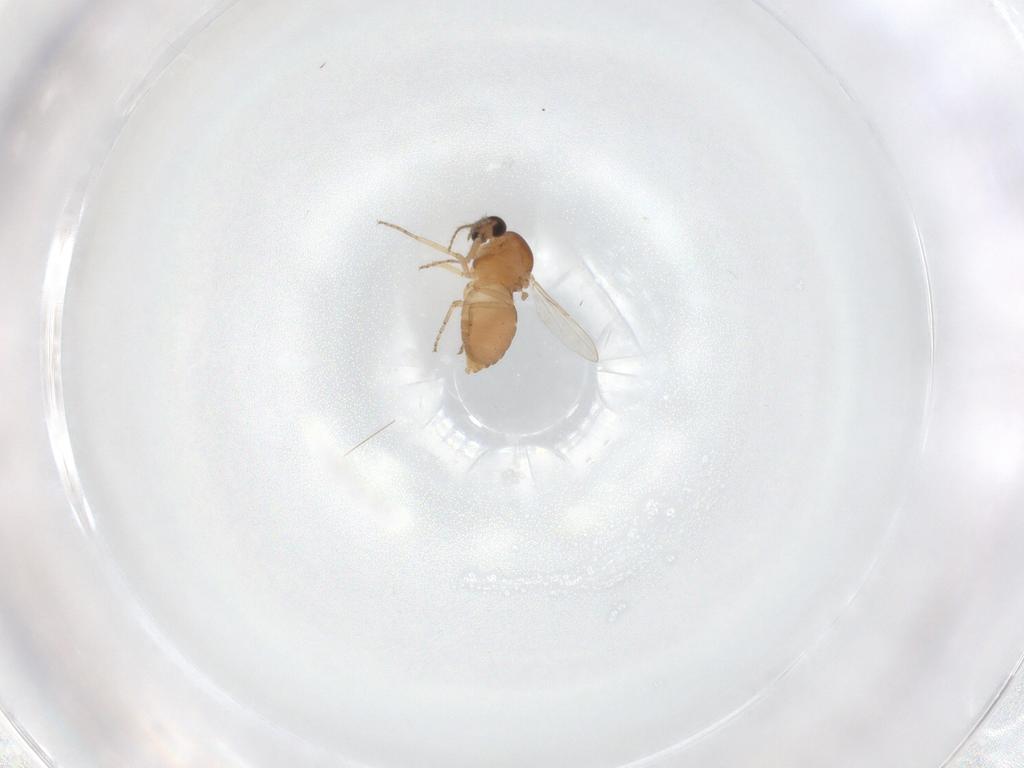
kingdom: Animalia
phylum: Arthropoda
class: Insecta
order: Diptera
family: Ceratopogonidae
